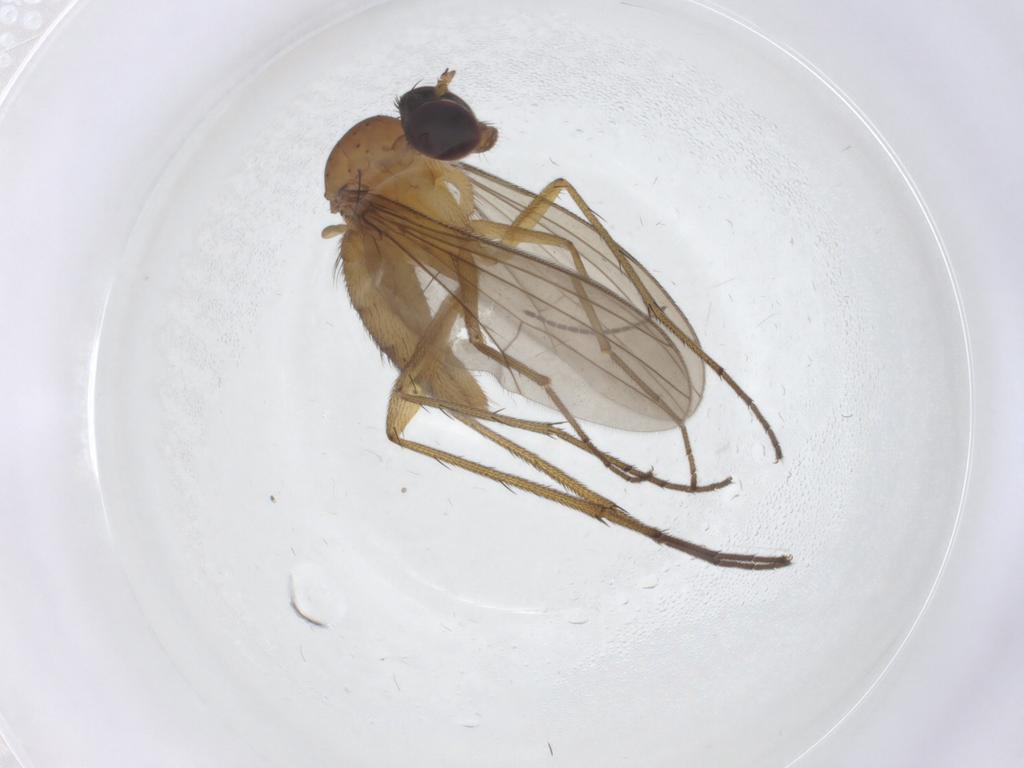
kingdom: Animalia
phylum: Arthropoda
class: Insecta
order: Diptera
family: Sciaridae
